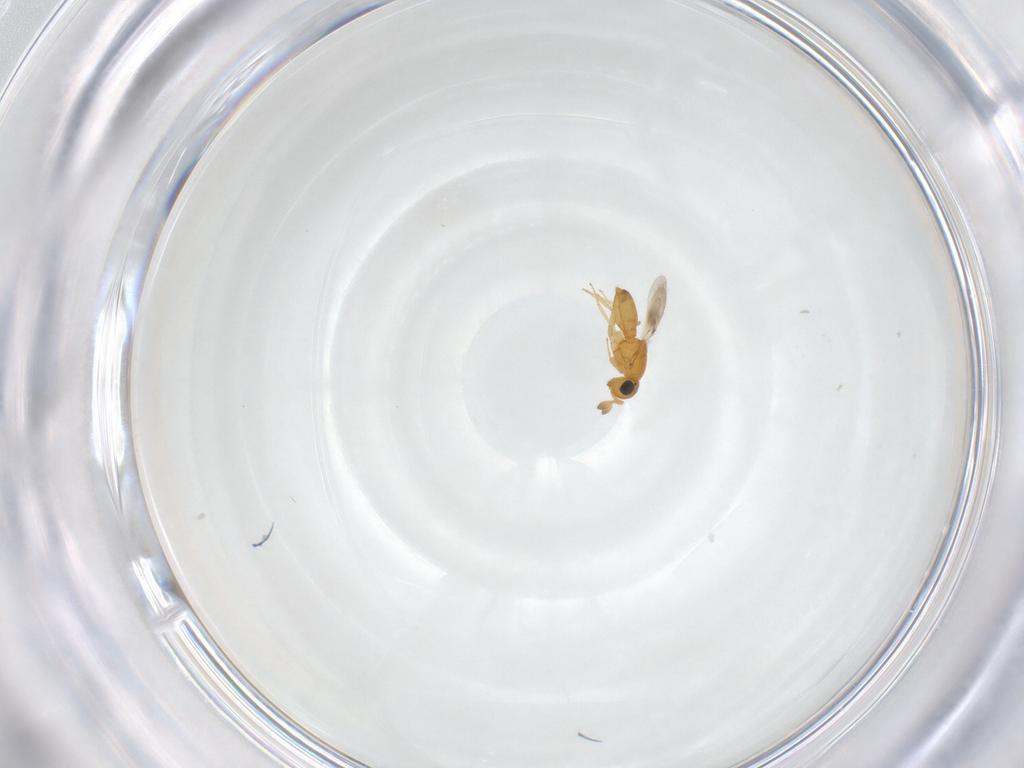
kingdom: Animalia
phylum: Arthropoda
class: Insecta
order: Hymenoptera
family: Scelionidae
